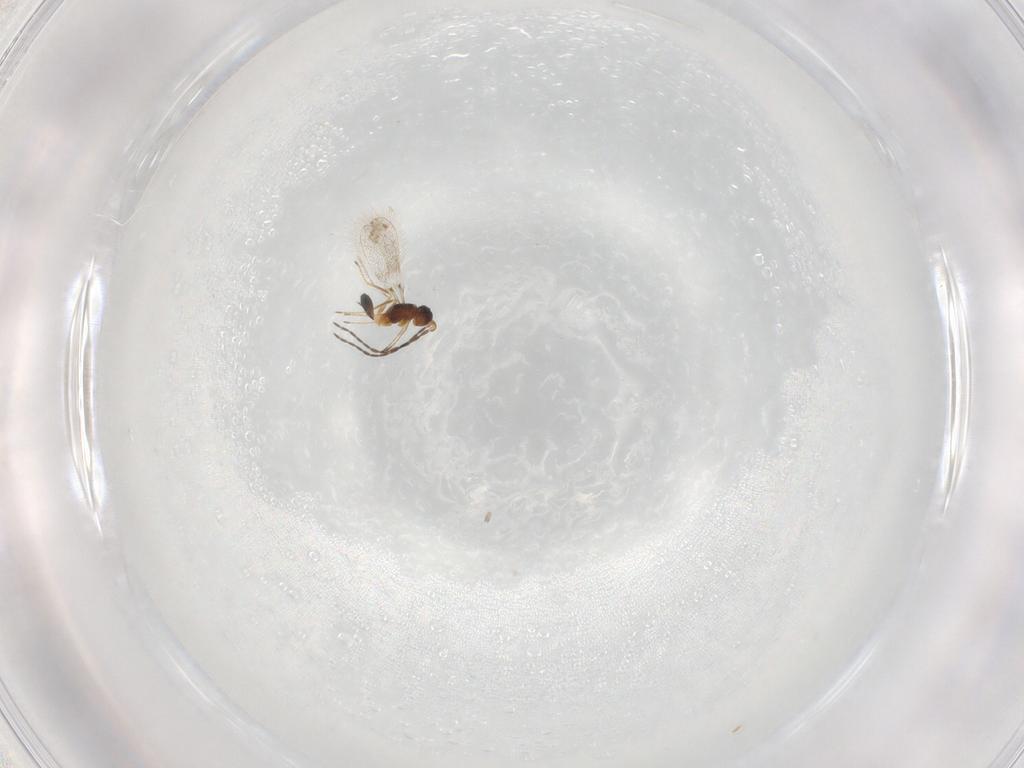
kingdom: Animalia
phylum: Arthropoda
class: Insecta
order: Hymenoptera
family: Mymaridae
